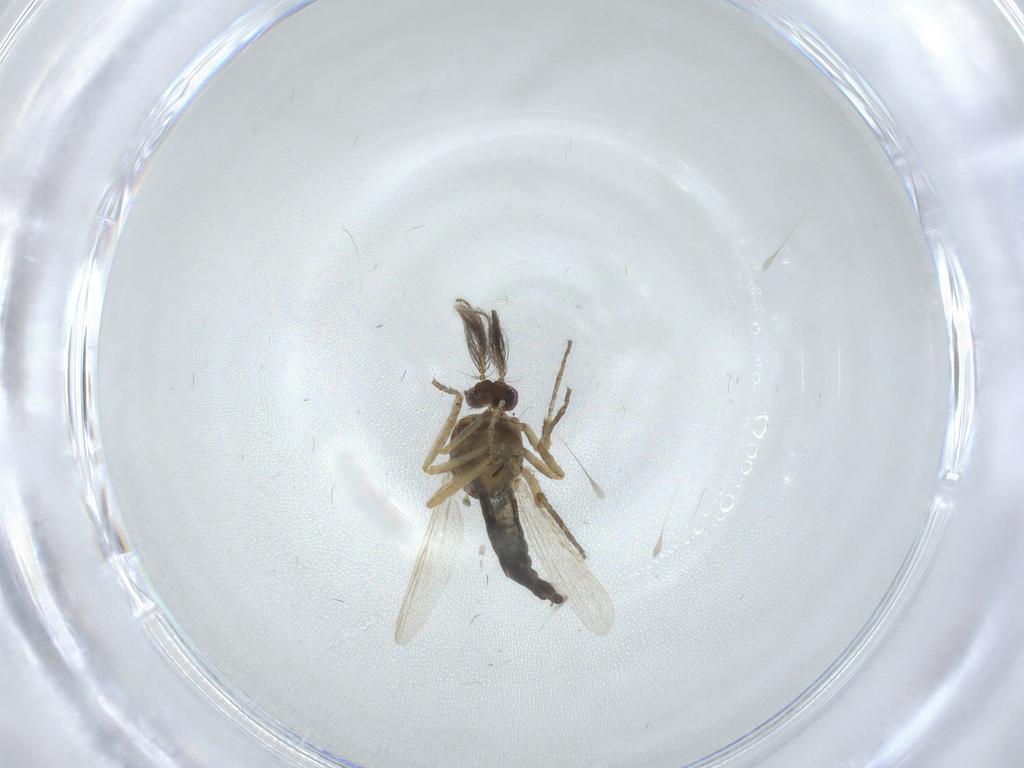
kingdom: Animalia
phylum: Arthropoda
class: Insecta
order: Diptera
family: Ceratopogonidae
